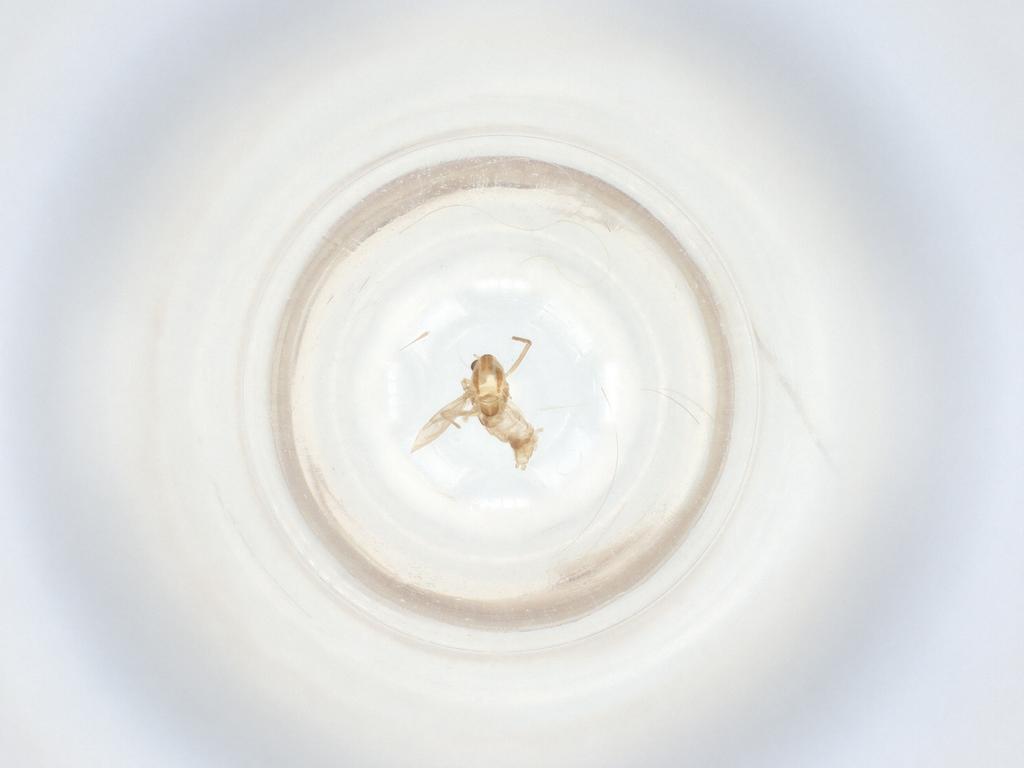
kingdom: Animalia
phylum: Arthropoda
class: Insecta
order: Diptera
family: Chironomidae
